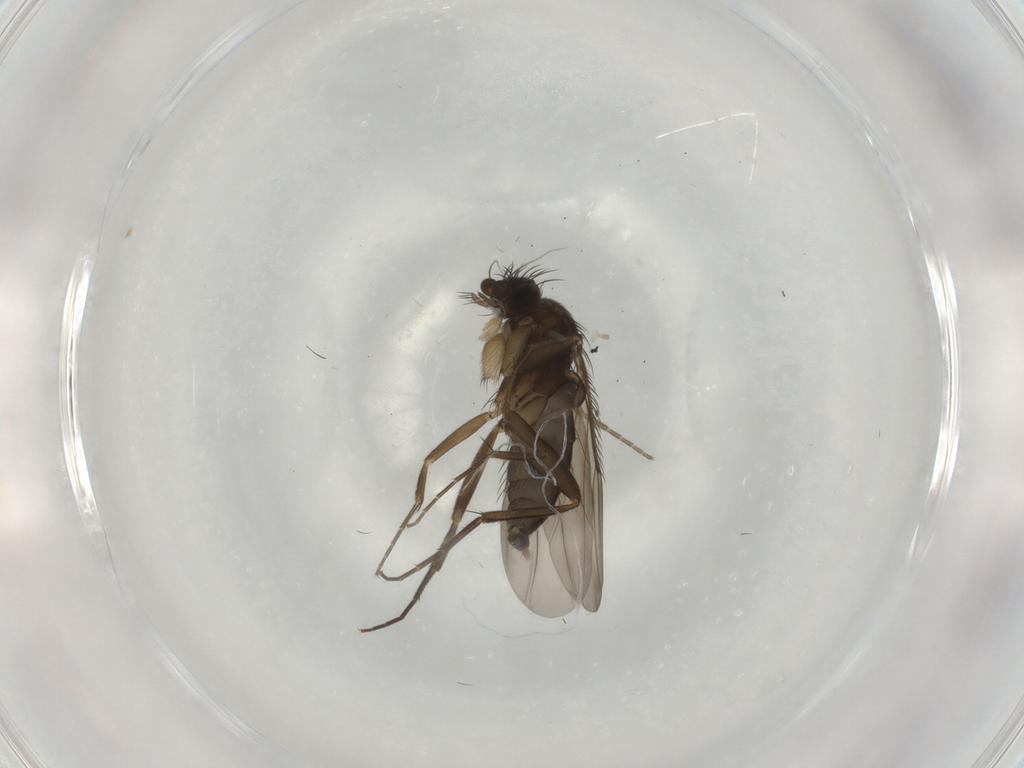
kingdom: Animalia
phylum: Arthropoda
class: Insecta
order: Diptera
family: Phoridae
